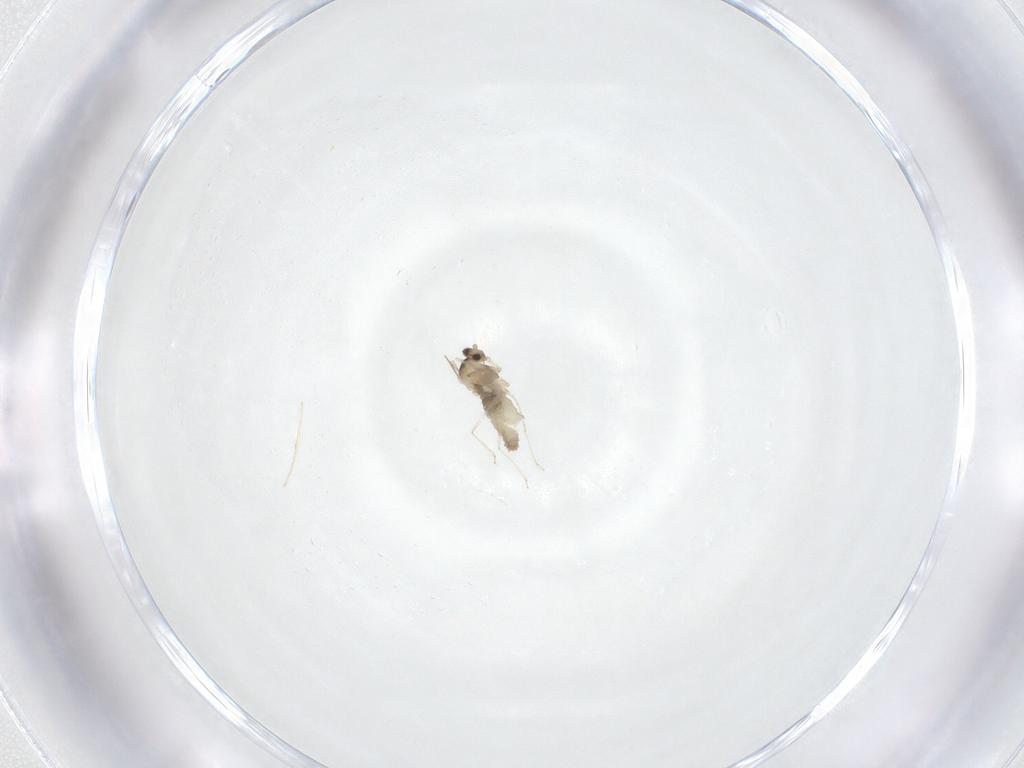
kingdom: Animalia
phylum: Arthropoda
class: Insecta
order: Diptera
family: Cecidomyiidae
